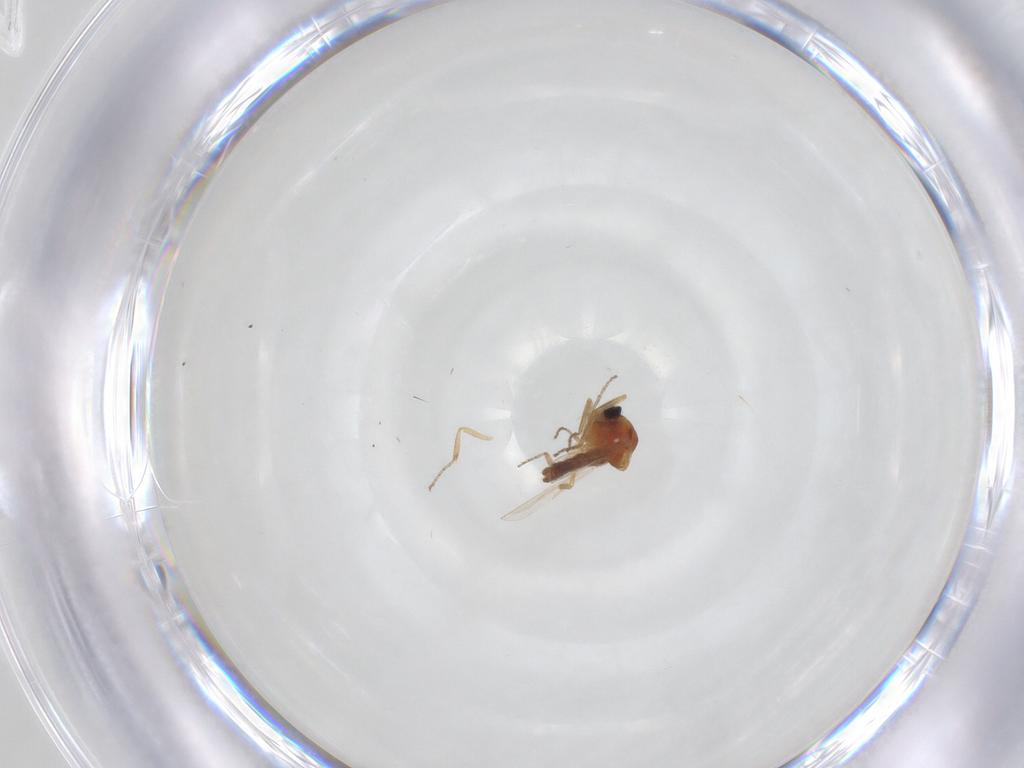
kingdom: Animalia
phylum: Arthropoda
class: Insecta
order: Diptera
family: Ceratopogonidae
